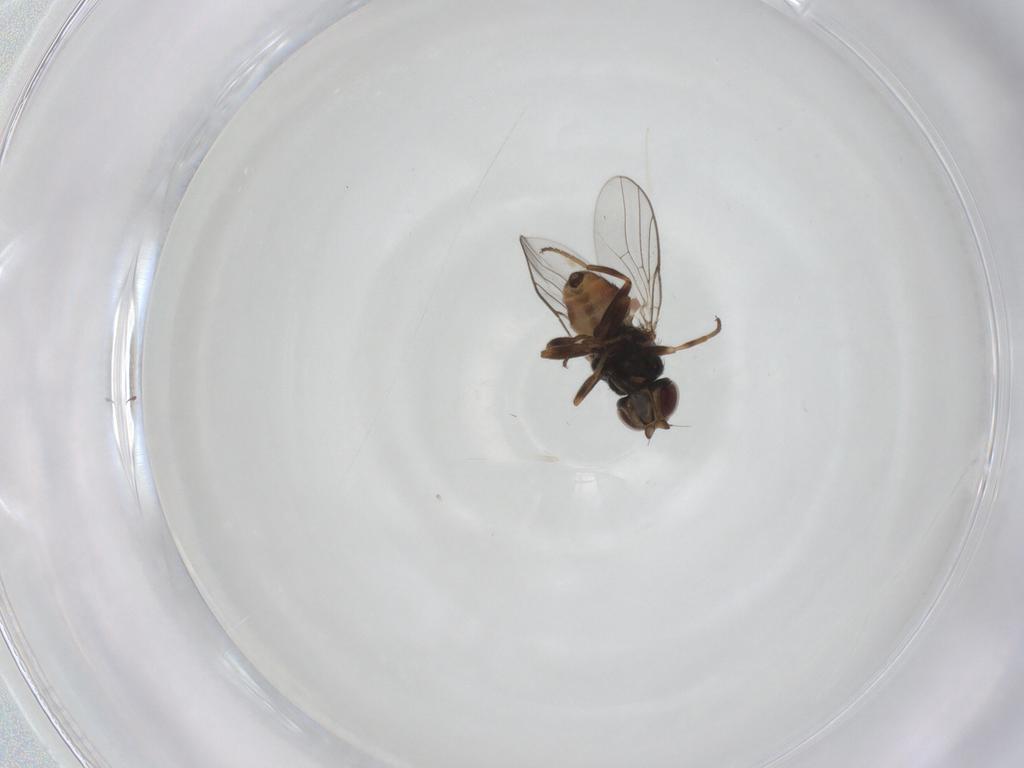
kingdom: Animalia
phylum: Arthropoda
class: Insecta
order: Diptera
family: Chloropidae
